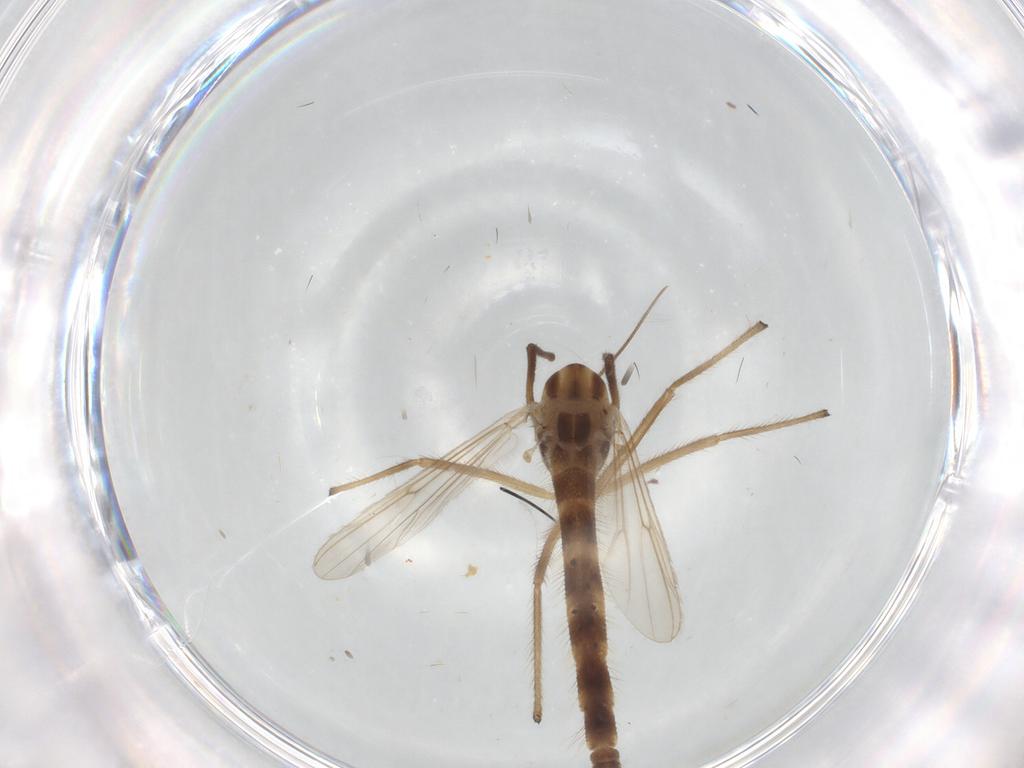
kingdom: Animalia
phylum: Arthropoda
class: Insecta
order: Diptera
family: Chironomidae
